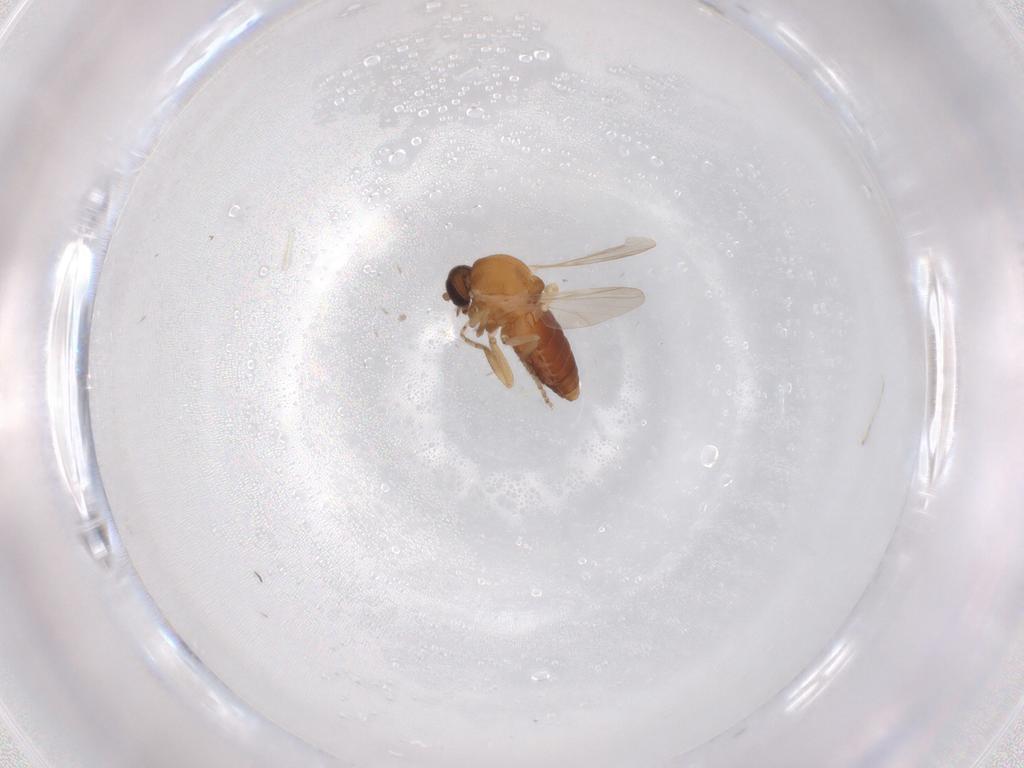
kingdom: Animalia
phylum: Arthropoda
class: Insecta
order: Diptera
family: Ceratopogonidae
